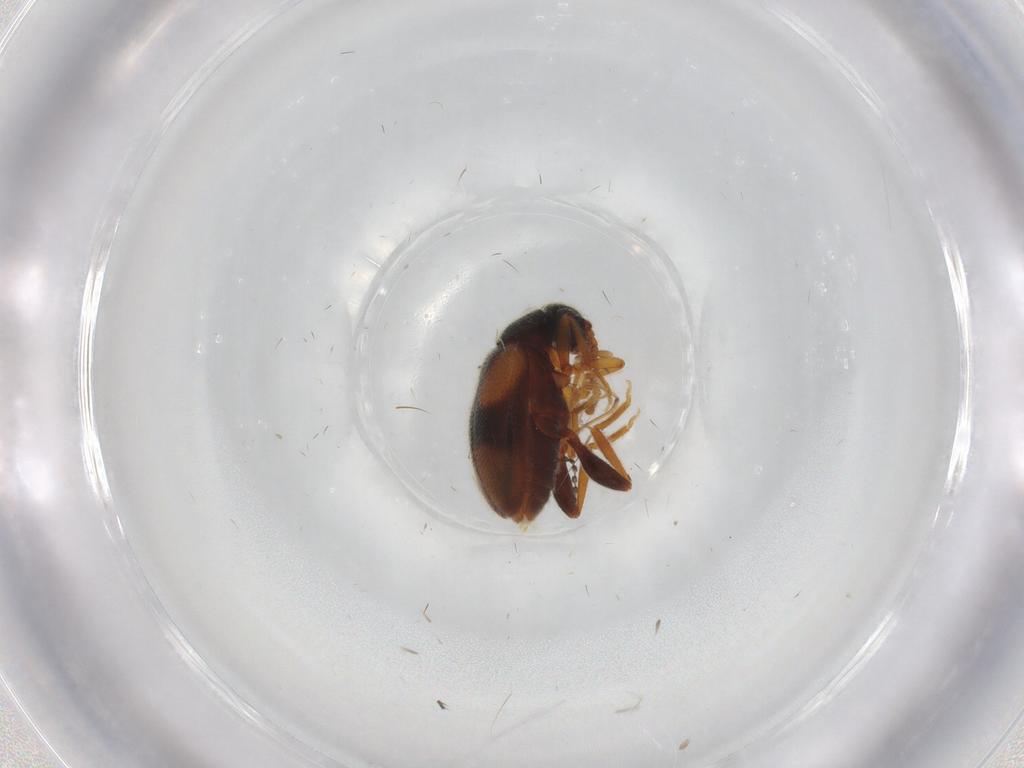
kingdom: Animalia
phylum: Arthropoda
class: Insecta
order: Coleoptera
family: Aderidae
